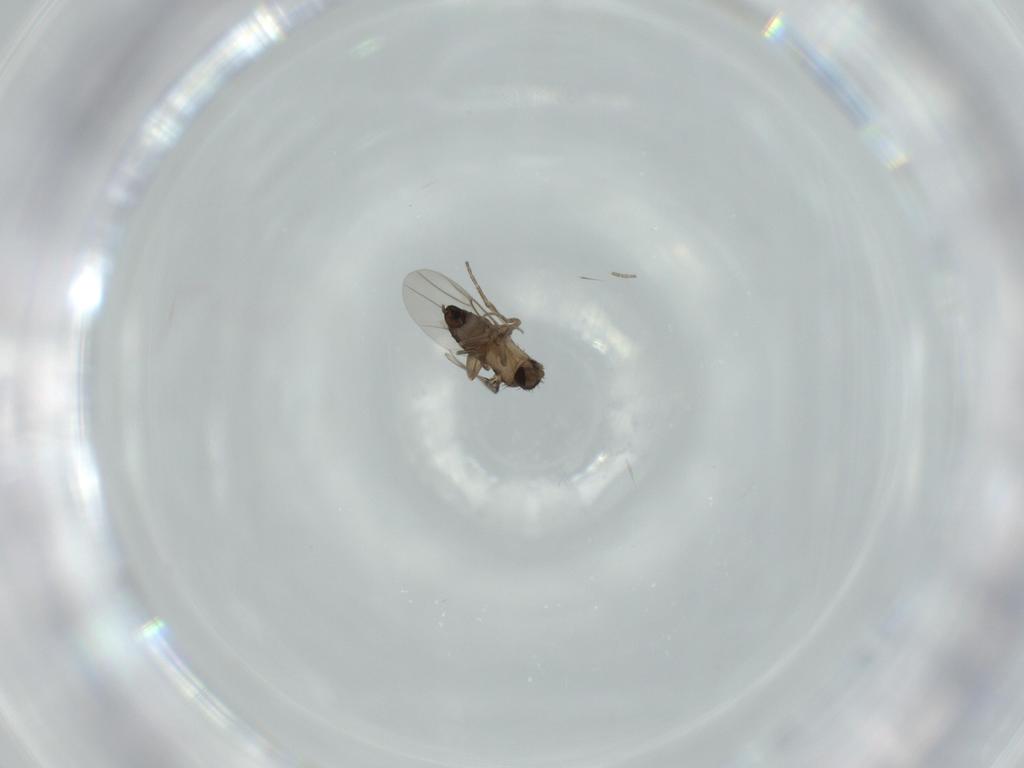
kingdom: Animalia
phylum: Arthropoda
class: Insecta
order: Diptera
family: Phoridae
